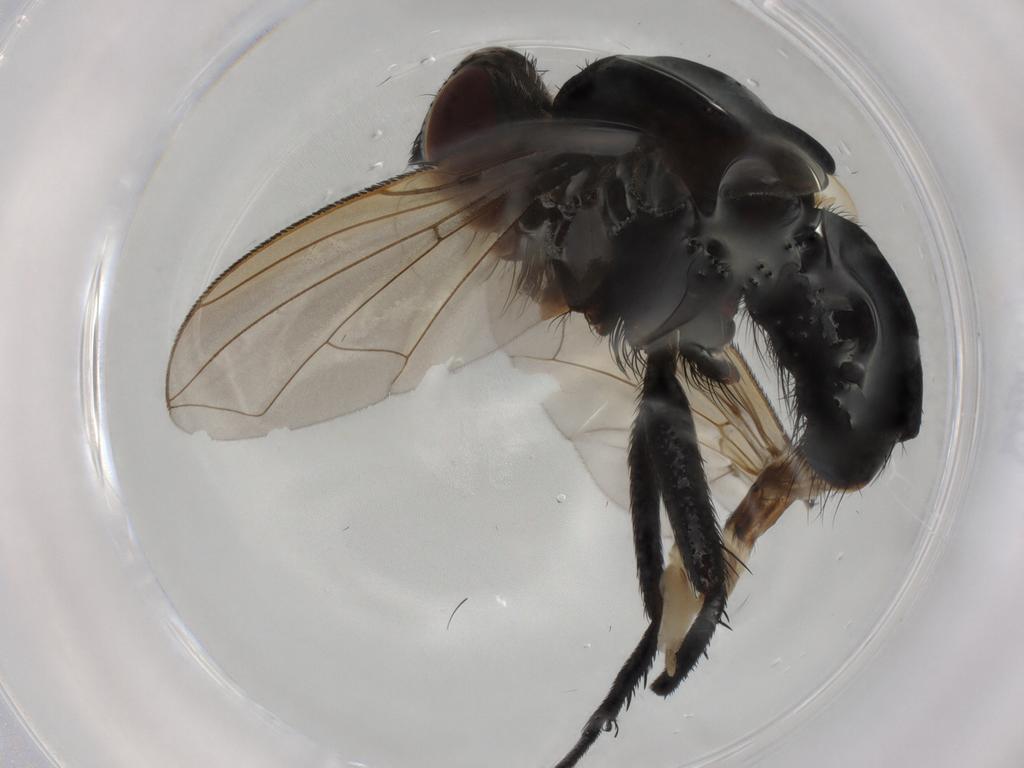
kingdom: Animalia
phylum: Arthropoda
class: Insecta
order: Diptera
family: Tachinidae
